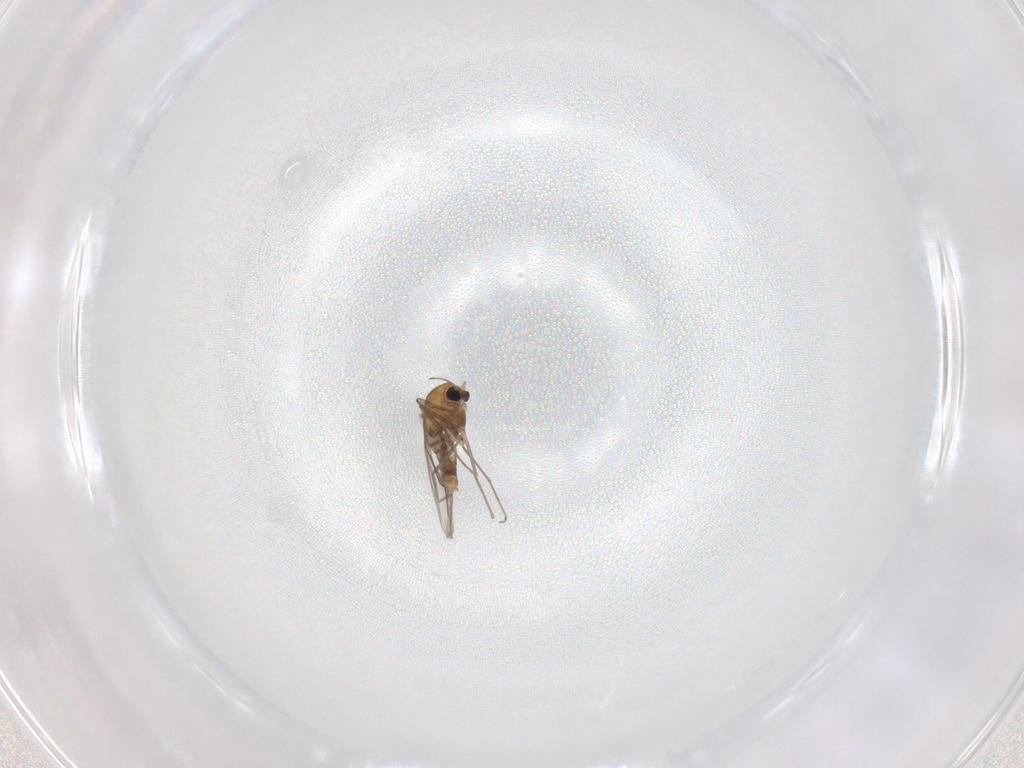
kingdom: Animalia
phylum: Arthropoda
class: Insecta
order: Diptera
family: Chironomidae
